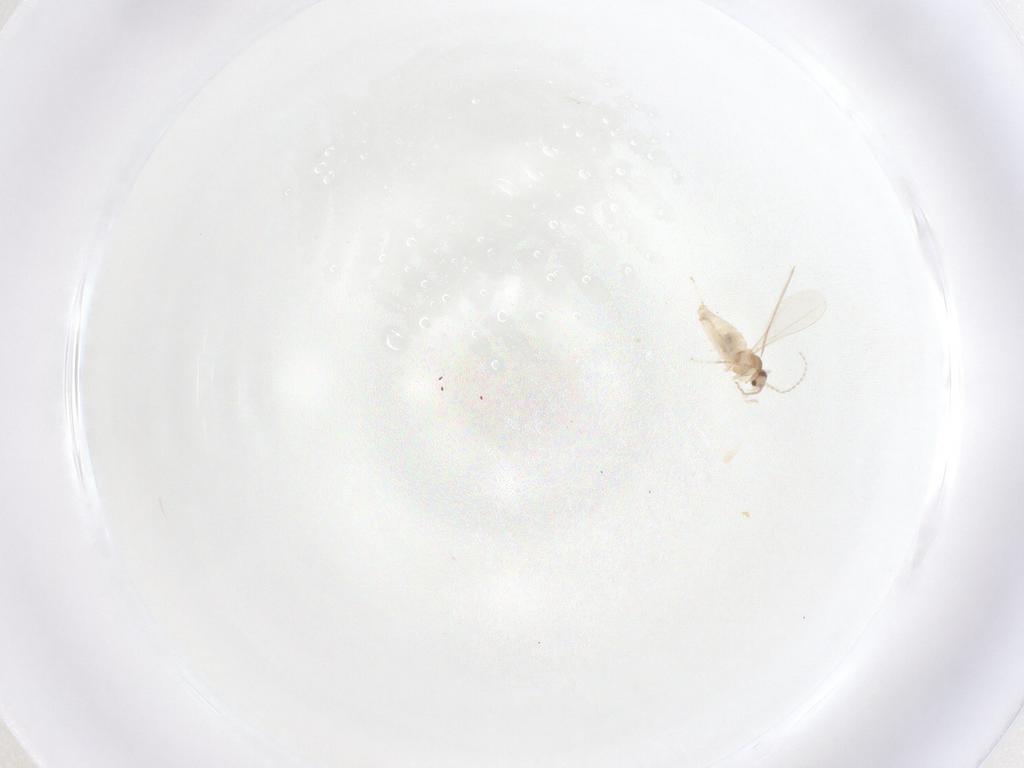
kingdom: Animalia
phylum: Arthropoda
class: Insecta
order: Diptera
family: Cecidomyiidae
